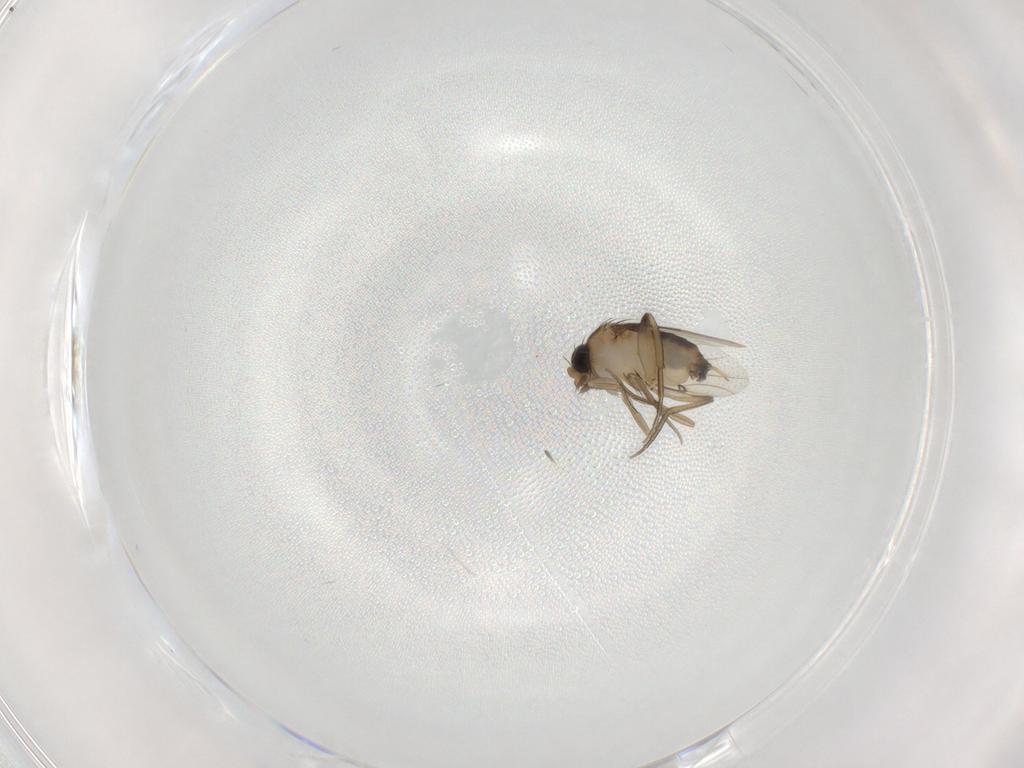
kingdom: Animalia
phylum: Arthropoda
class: Insecta
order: Diptera
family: Phoridae
